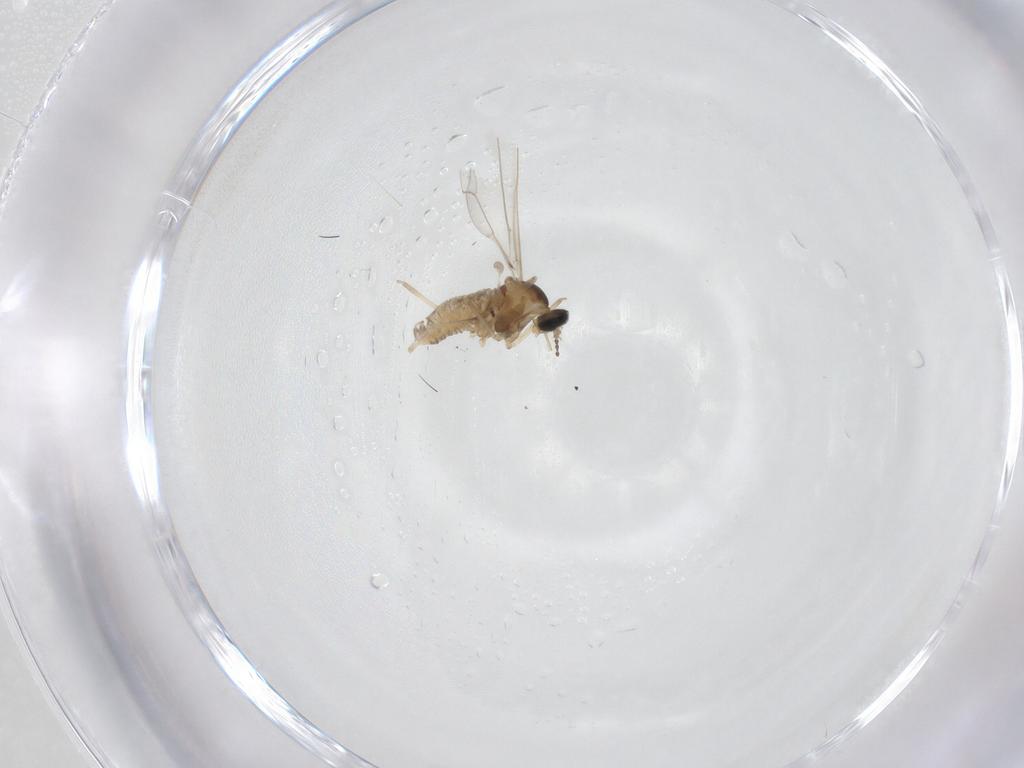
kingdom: Animalia
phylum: Arthropoda
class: Insecta
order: Diptera
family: Cecidomyiidae
